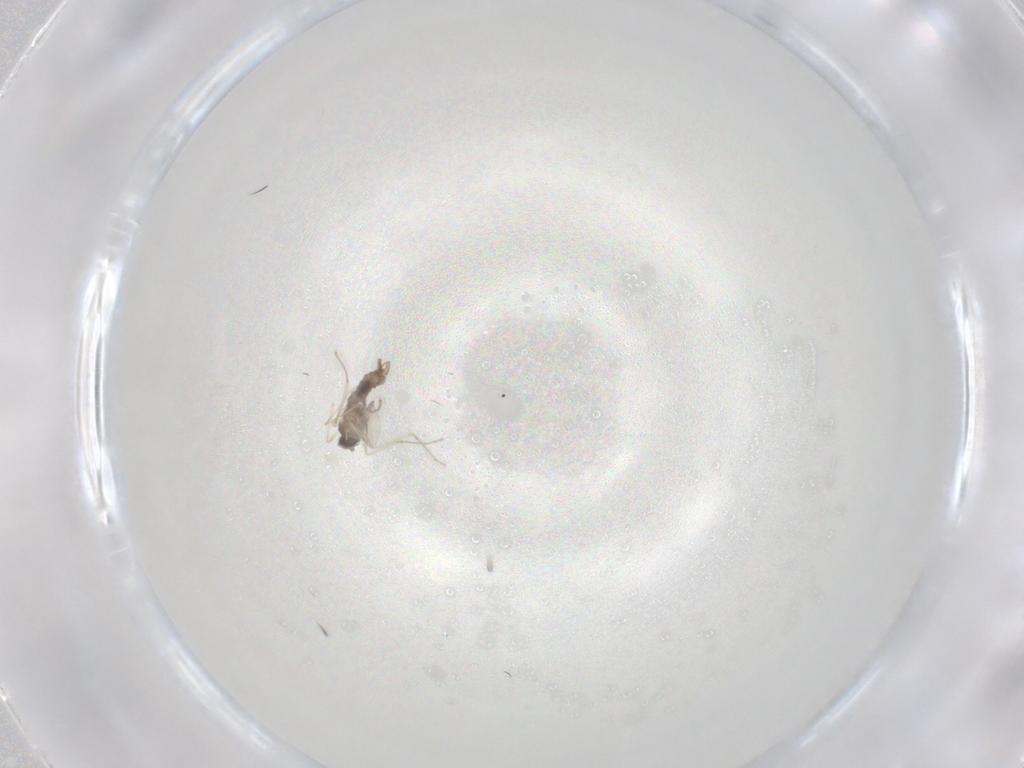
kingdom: Animalia
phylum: Arthropoda
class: Insecta
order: Diptera
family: Cecidomyiidae
